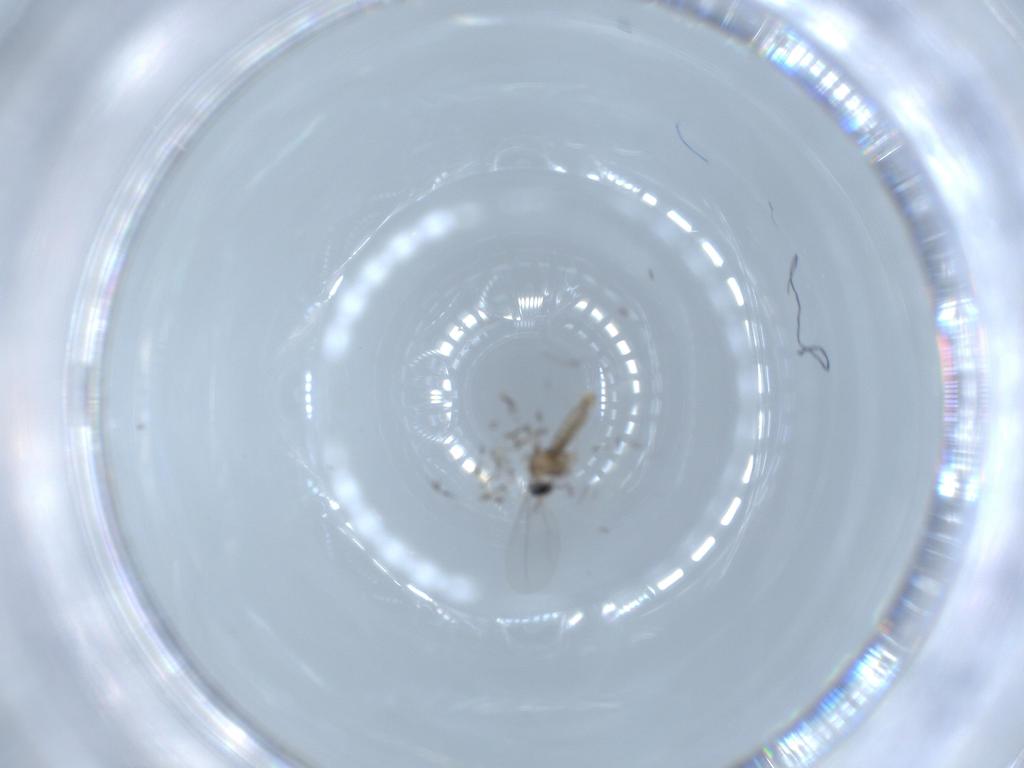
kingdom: Animalia
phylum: Arthropoda
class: Insecta
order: Diptera
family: Cecidomyiidae
